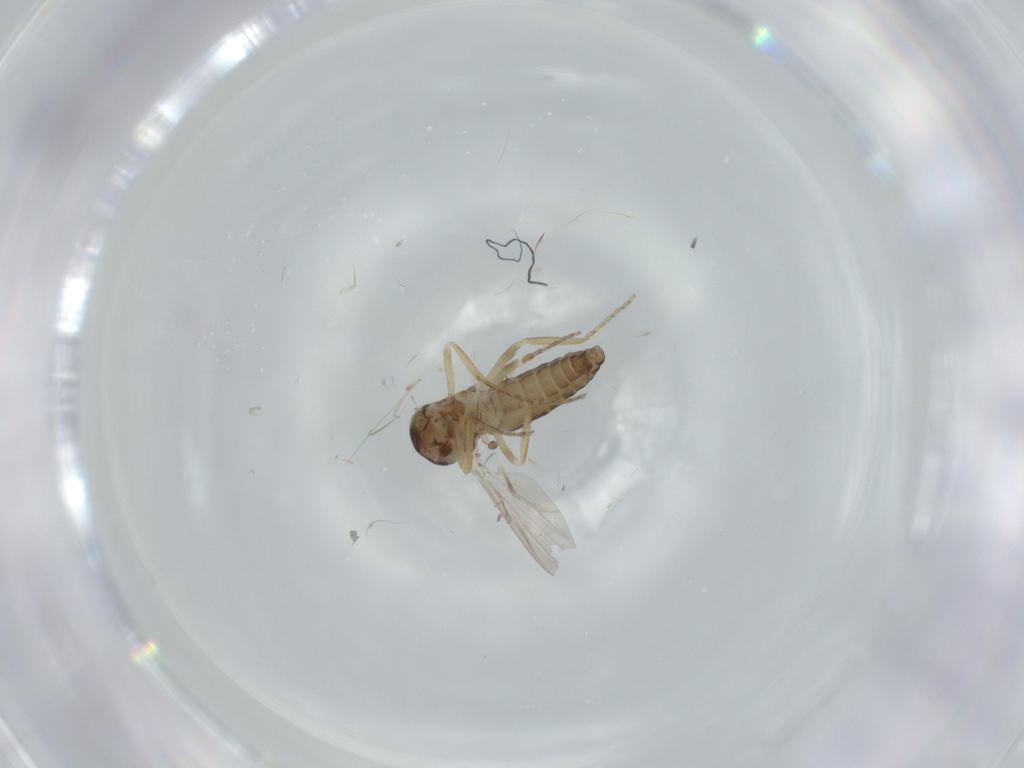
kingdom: Animalia
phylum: Arthropoda
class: Insecta
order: Diptera
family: Ceratopogonidae
